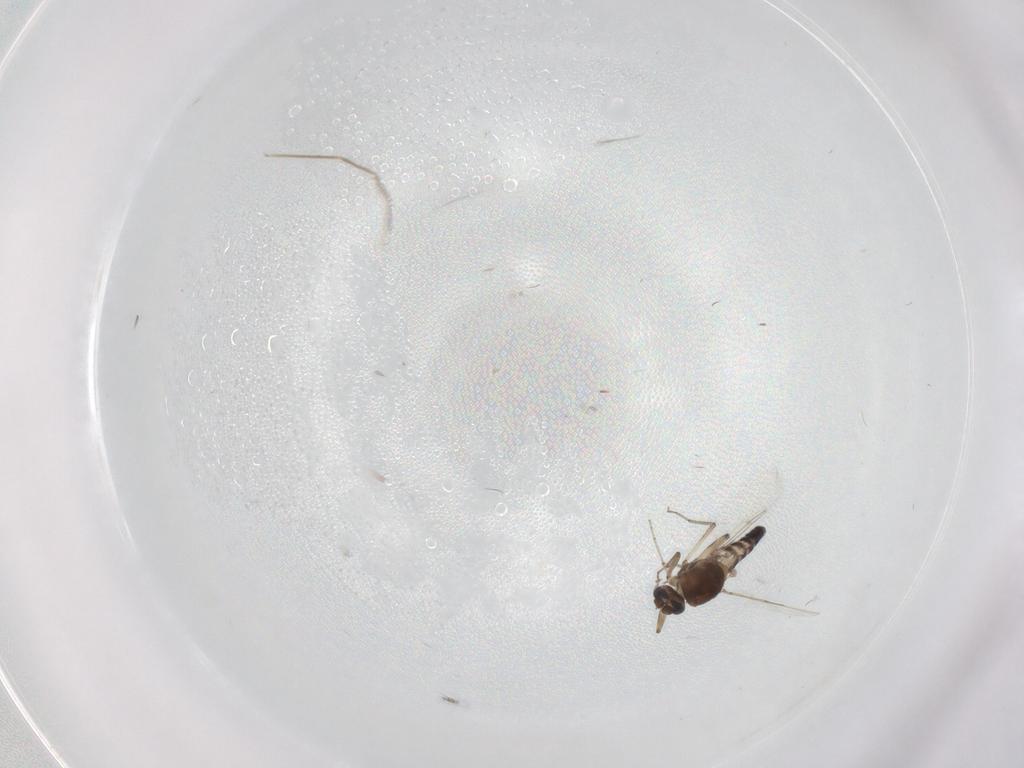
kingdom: Animalia
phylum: Arthropoda
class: Insecta
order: Diptera
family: Ceratopogonidae
